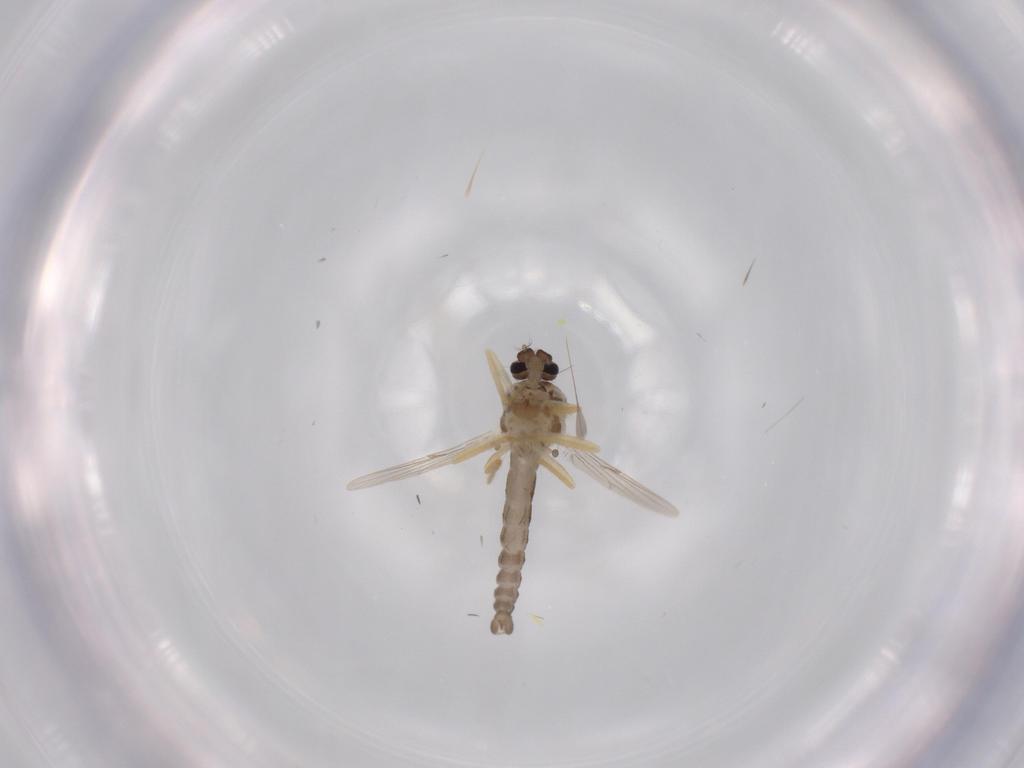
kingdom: Animalia
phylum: Arthropoda
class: Insecta
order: Diptera
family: Ceratopogonidae
